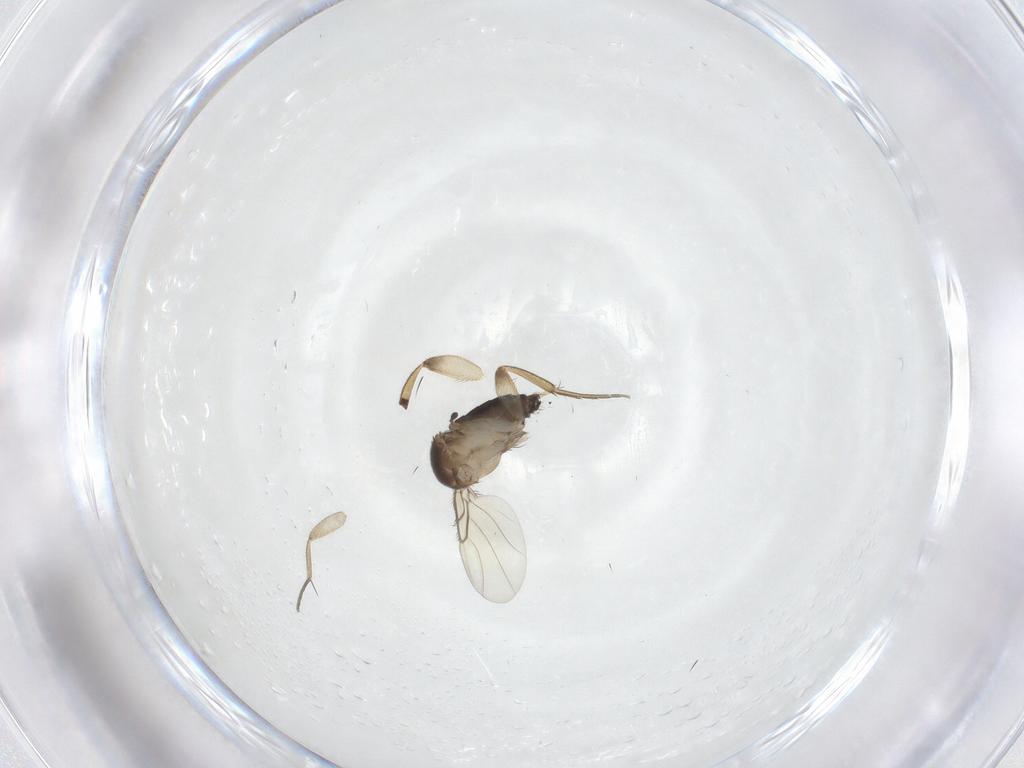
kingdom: Animalia
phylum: Arthropoda
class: Insecta
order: Diptera
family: Phoridae
